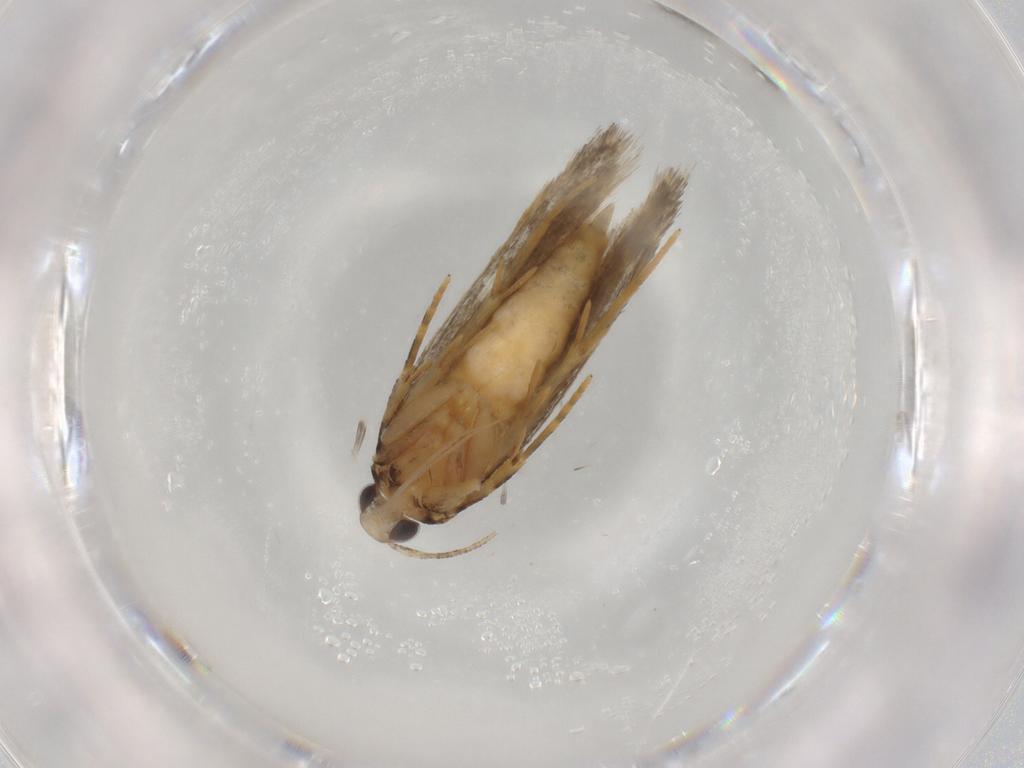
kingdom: Animalia
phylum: Arthropoda
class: Insecta
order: Lepidoptera
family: Autostichidae
